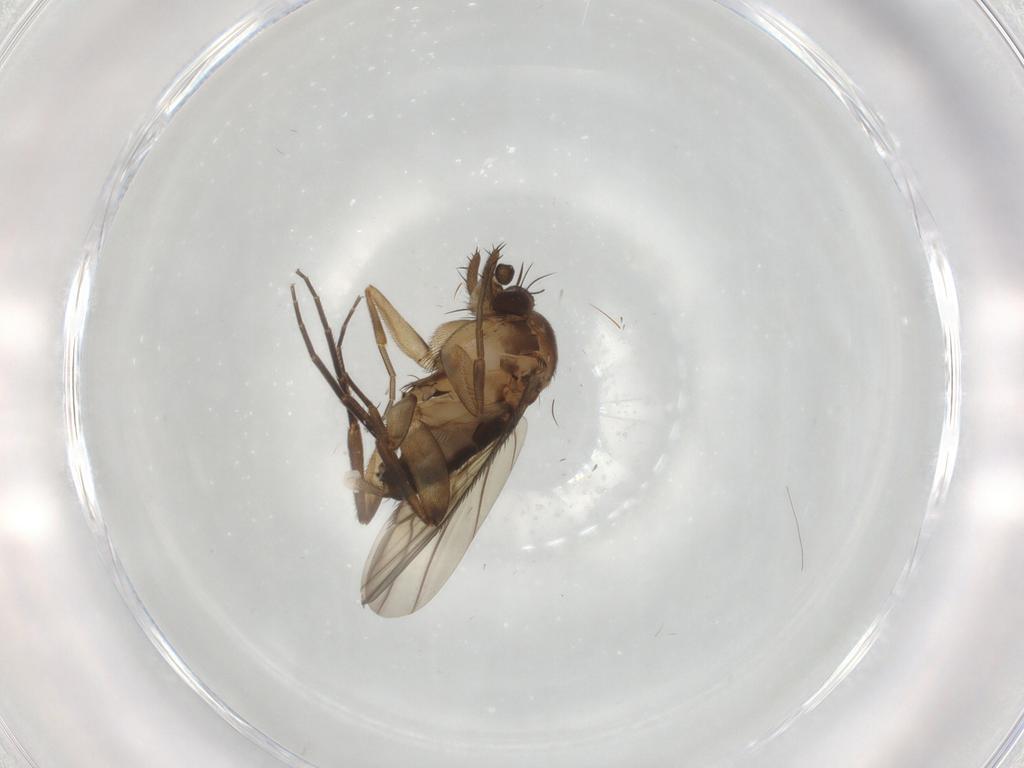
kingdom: Animalia
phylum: Arthropoda
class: Insecta
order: Diptera
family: Phoridae
